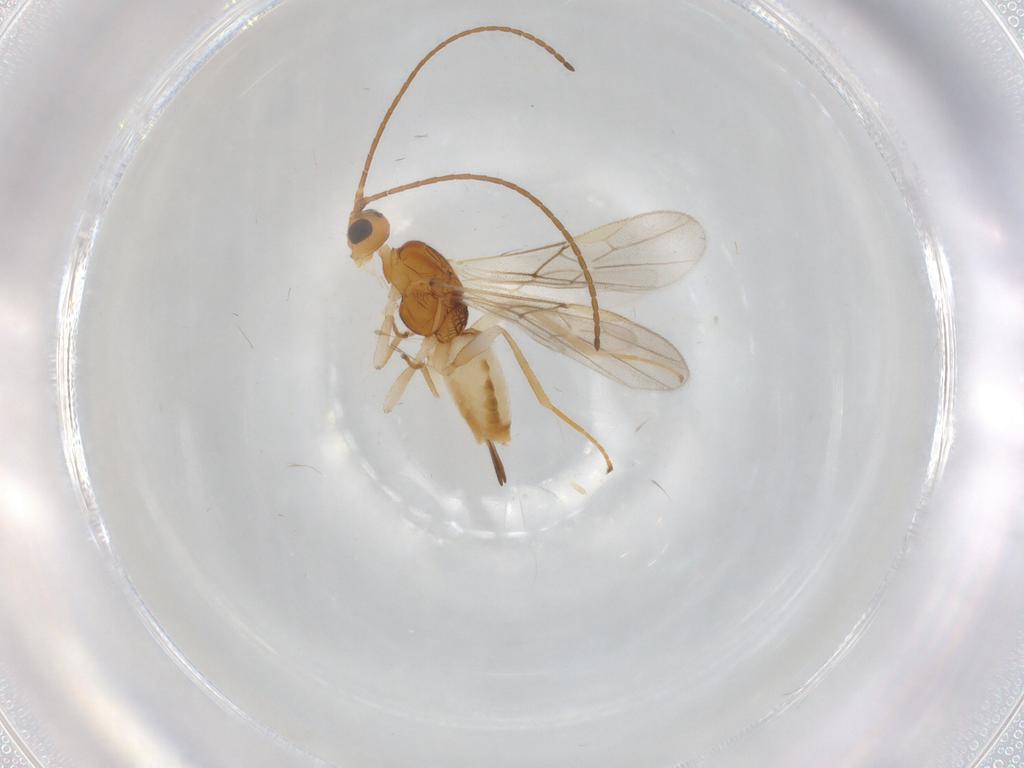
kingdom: Animalia
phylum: Arthropoda
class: Insecta
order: Hymenoptera
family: Braconidae
